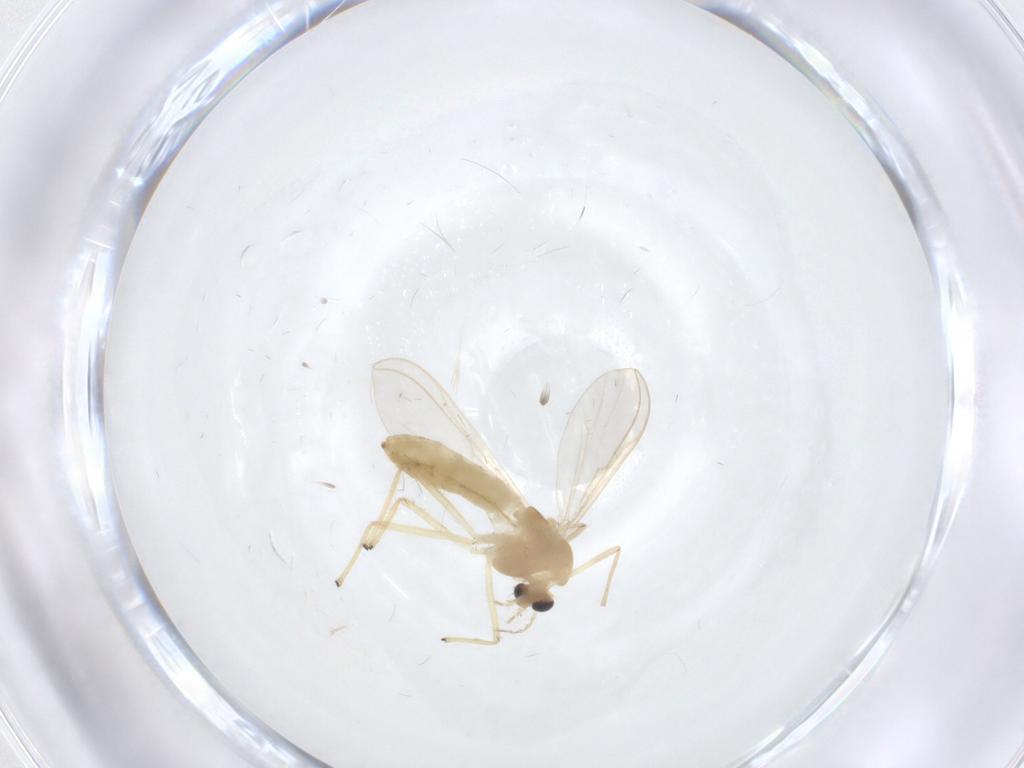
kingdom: Animalia
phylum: Arthropoda
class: Insecta
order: Diptera
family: Chironomidae
